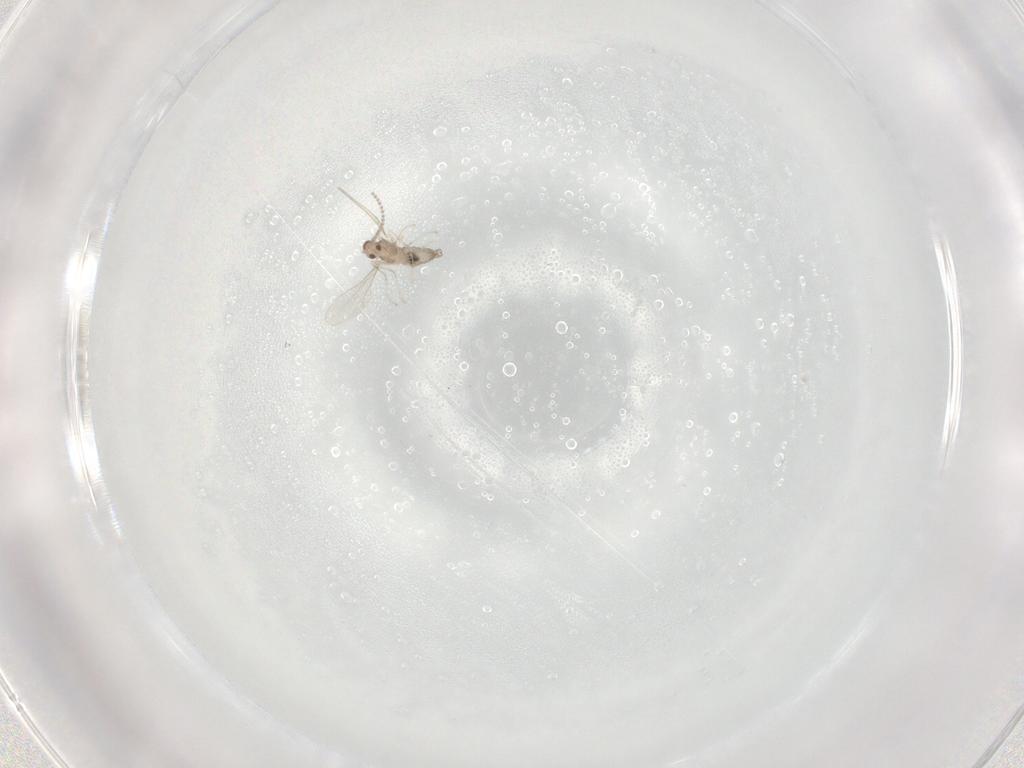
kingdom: Animalia
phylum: Arthropoda
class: Insecta
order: Diptera
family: Cecidomyiidae
